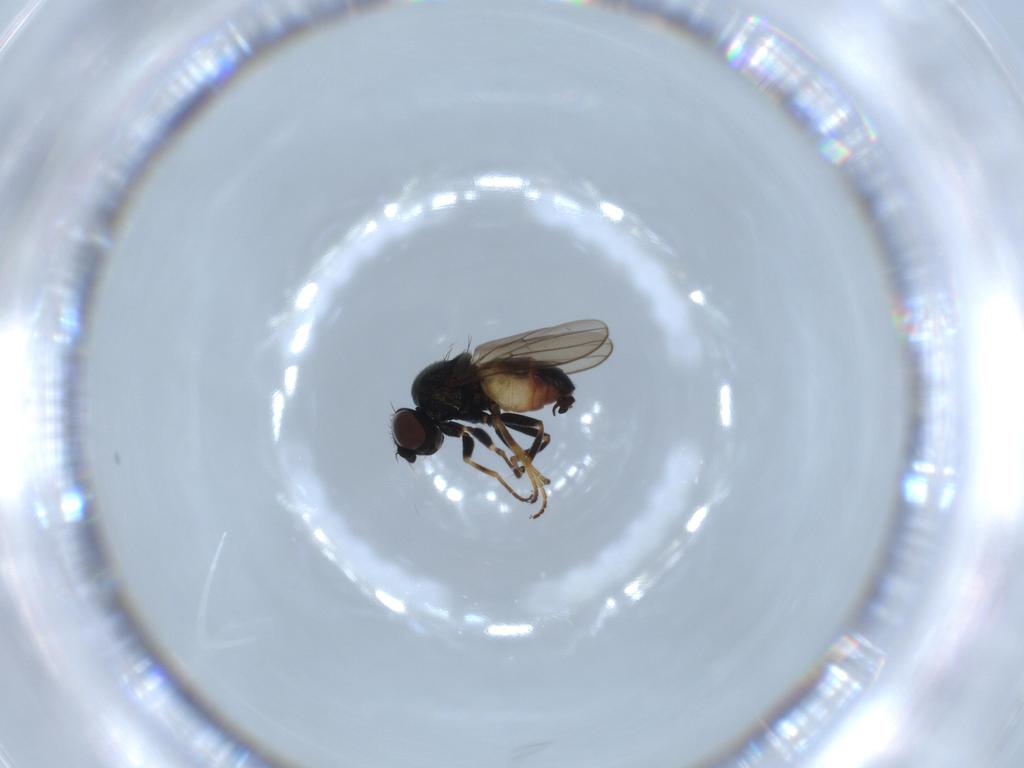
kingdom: Animalia
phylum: Arthropoda
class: Insecta
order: Diptera
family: Chloropidae
